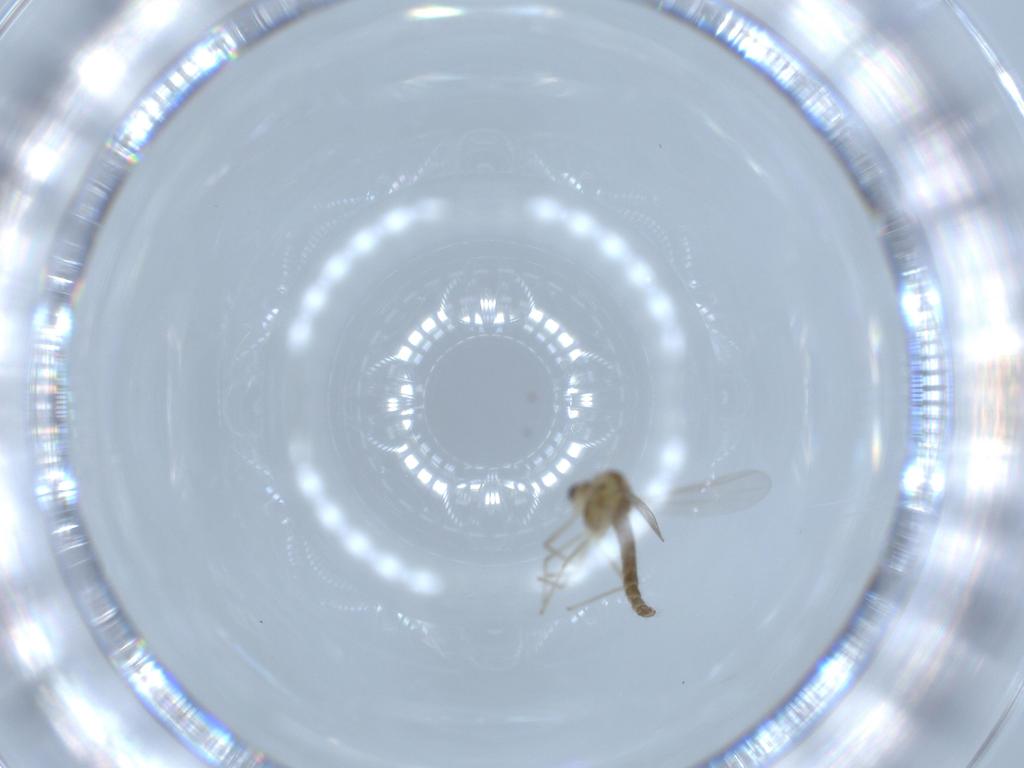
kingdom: Animalia
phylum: Arthropoda
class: Insecta
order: Diptera
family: Chironomidae
